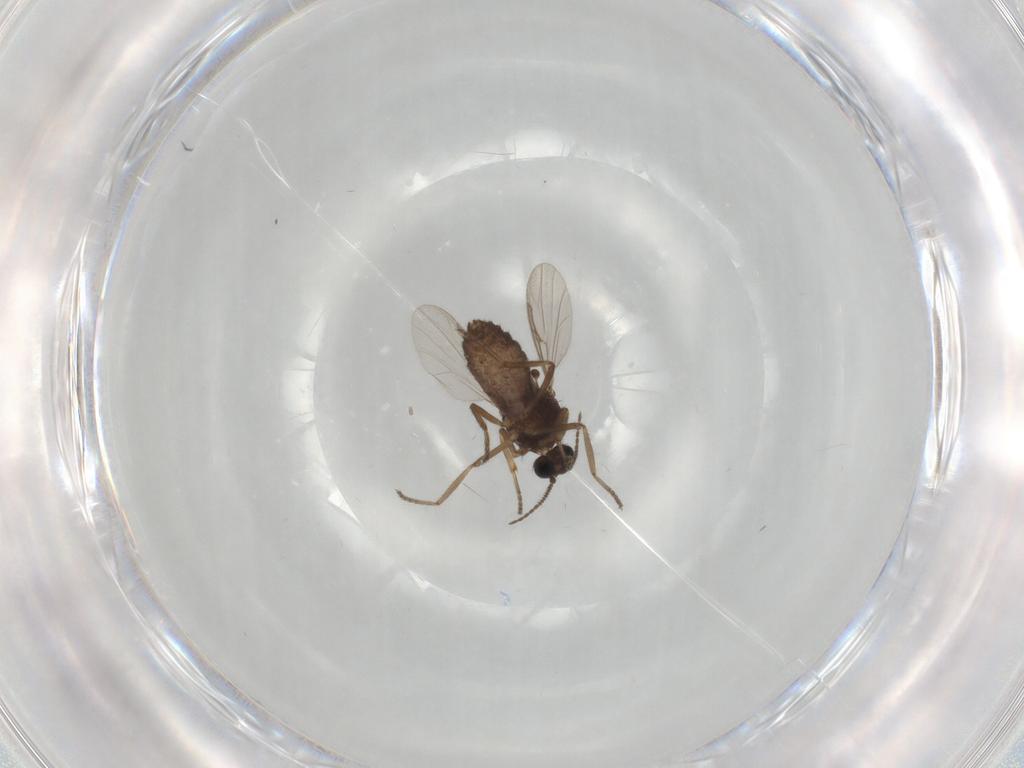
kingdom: Animalia
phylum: Arthropoda
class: Insecta
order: Diptera
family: Ceratopogonidae
